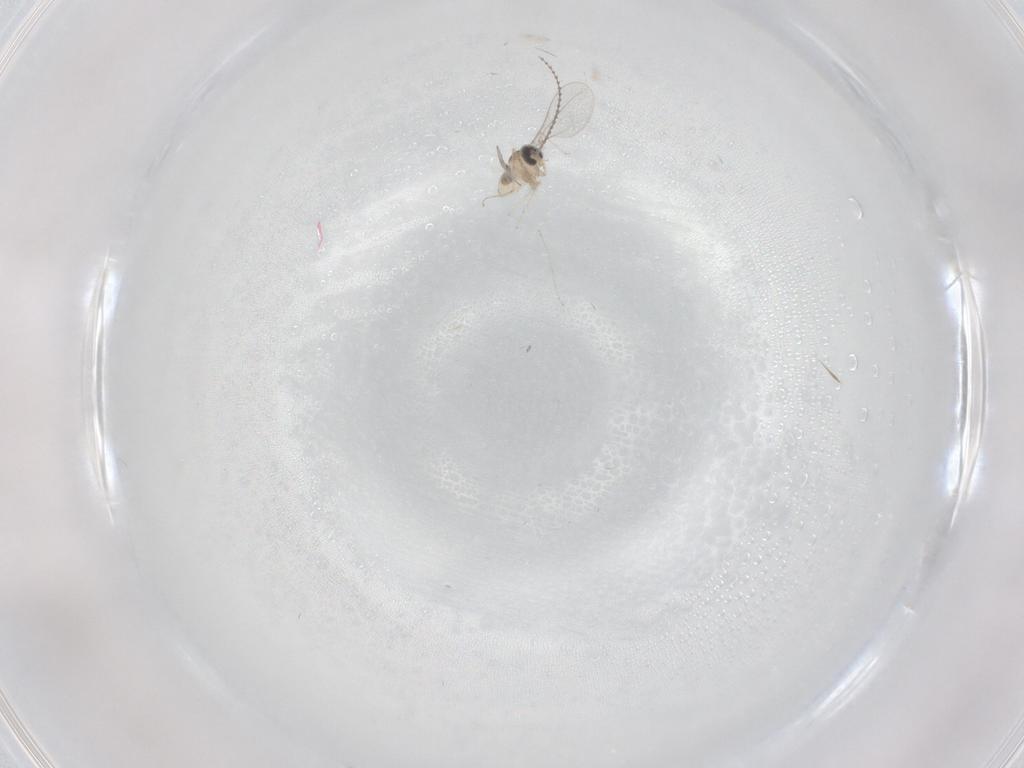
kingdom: Animalia
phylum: Arthropoda
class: Insecta
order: Diptera
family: Cecidomyiidae
